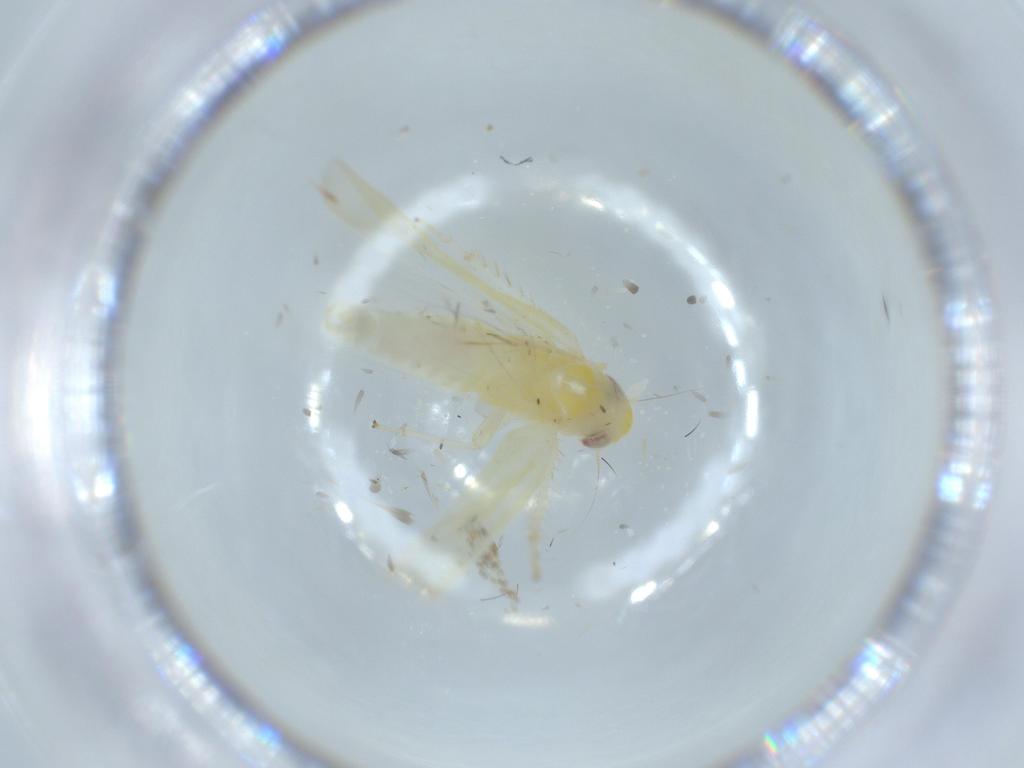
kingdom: Animalia
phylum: Arthropoda
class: Insecta
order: Hemiptera
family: Cicadellidae
